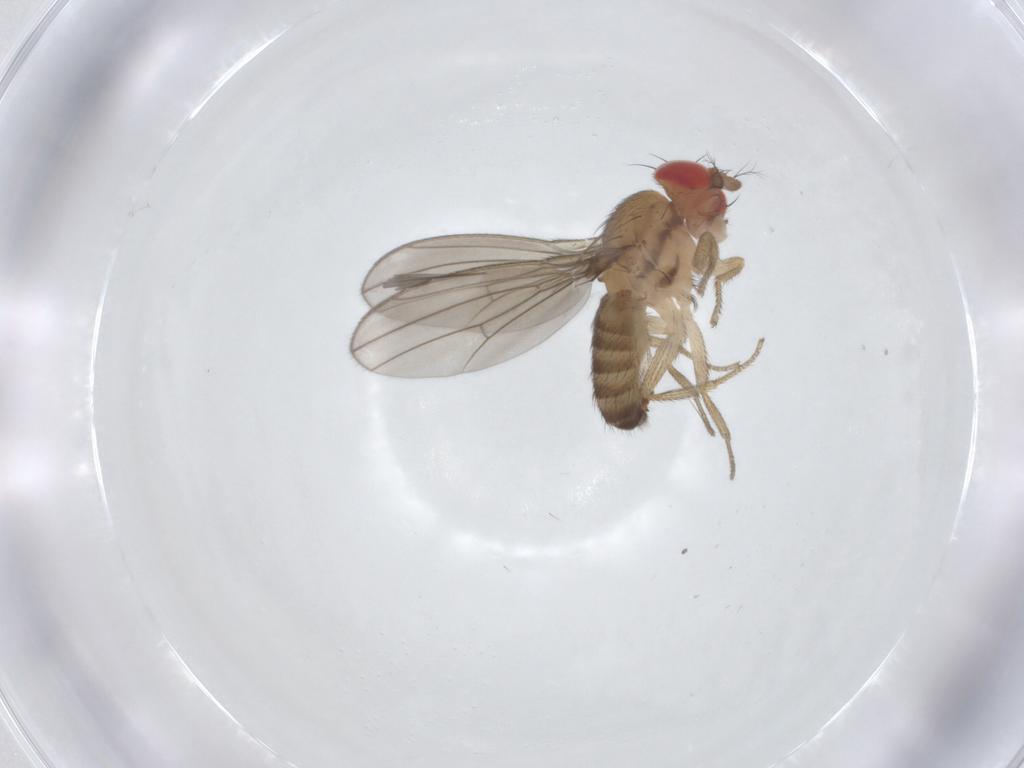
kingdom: Animalia
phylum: Arthropoda
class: Insecta
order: Diptera
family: Drosophilidae
